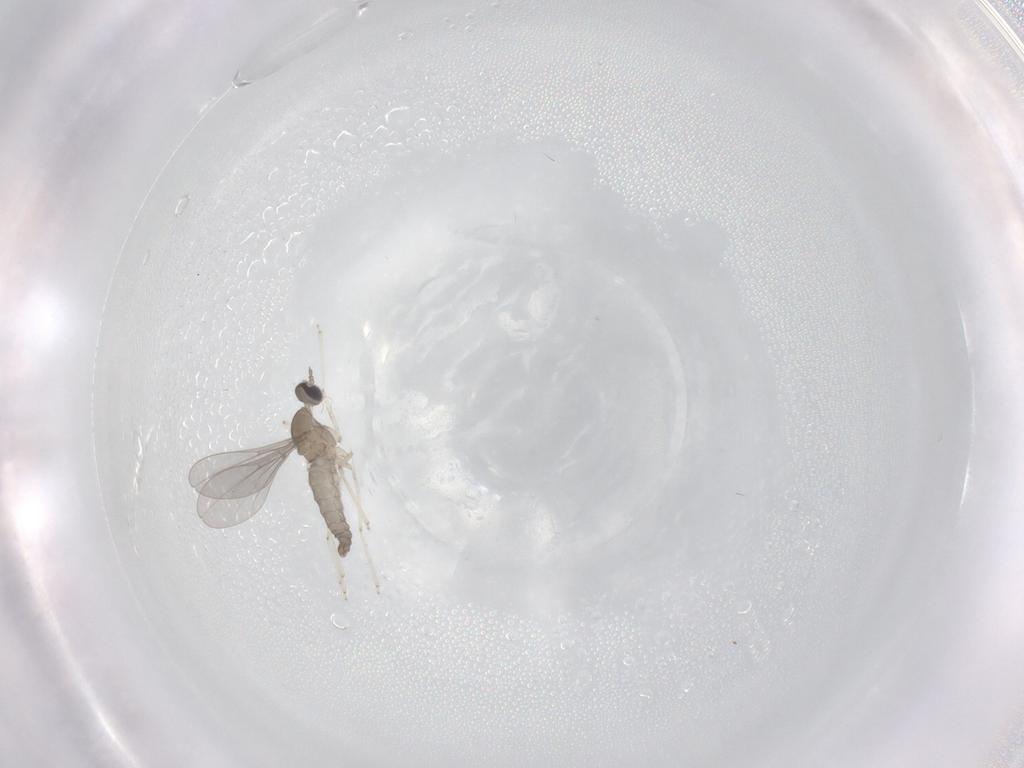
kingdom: Animalia
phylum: Arthropoda
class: Insecta
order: Diptera
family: Cecidomyiidae
